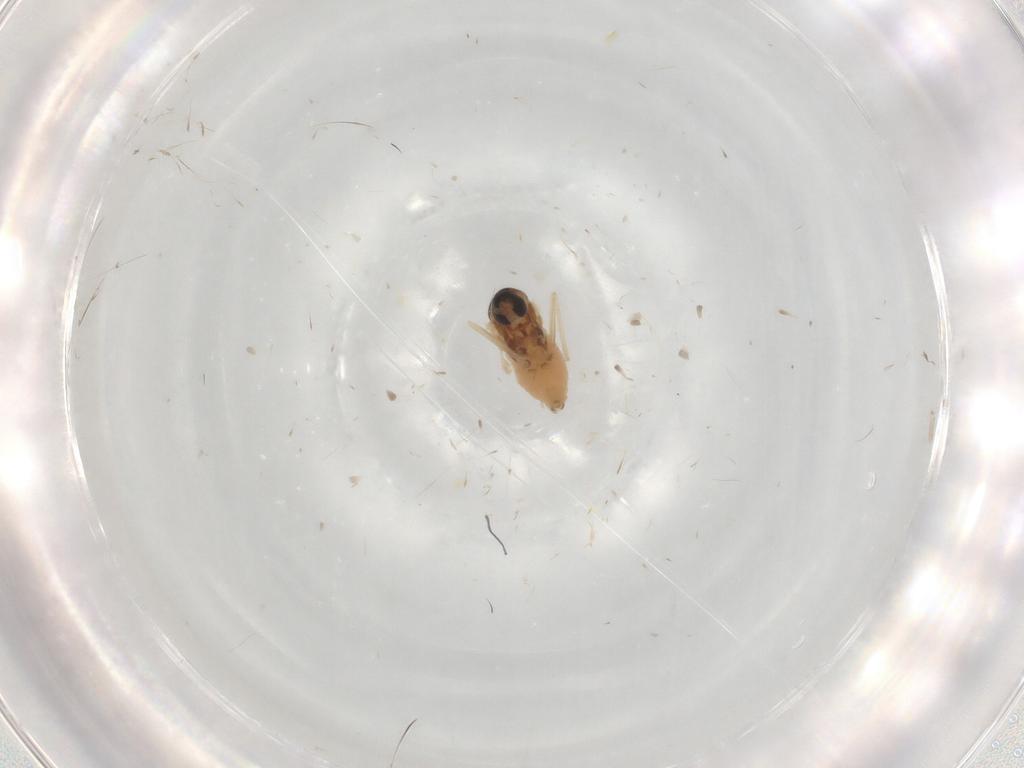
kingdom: Animalia
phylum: Arthropoda
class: Insecta
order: Diptera
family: Cecidomyiidae
